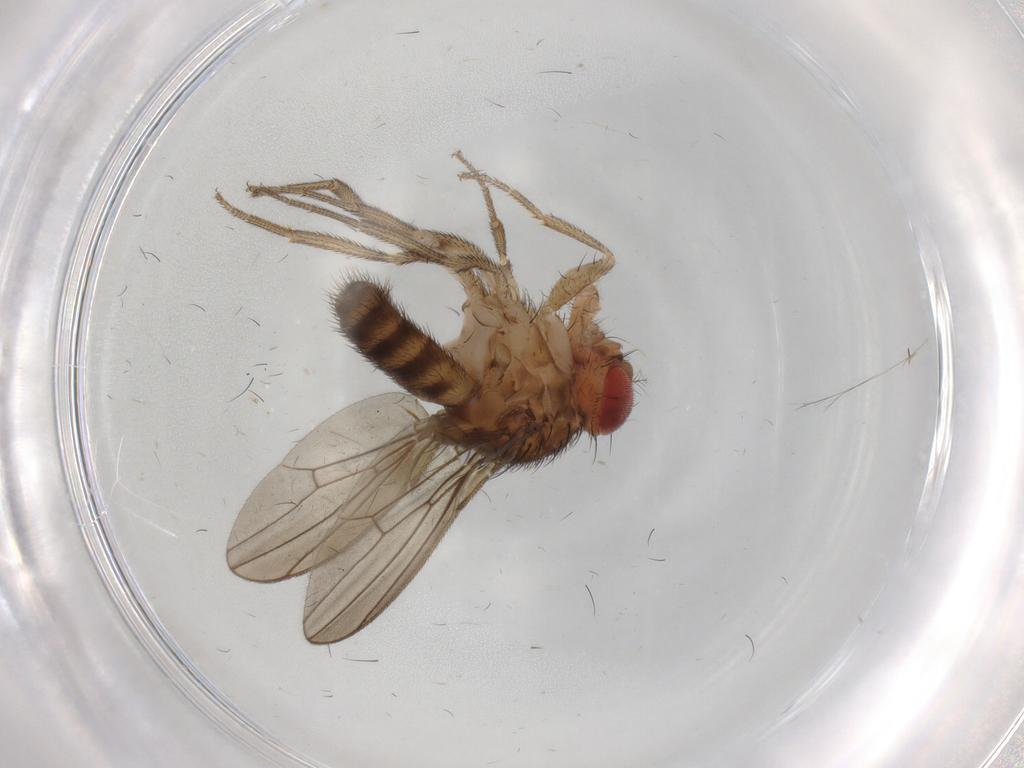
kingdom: Animalia
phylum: Arthropoda
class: Insecta
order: Diptera
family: Drosophilidae
